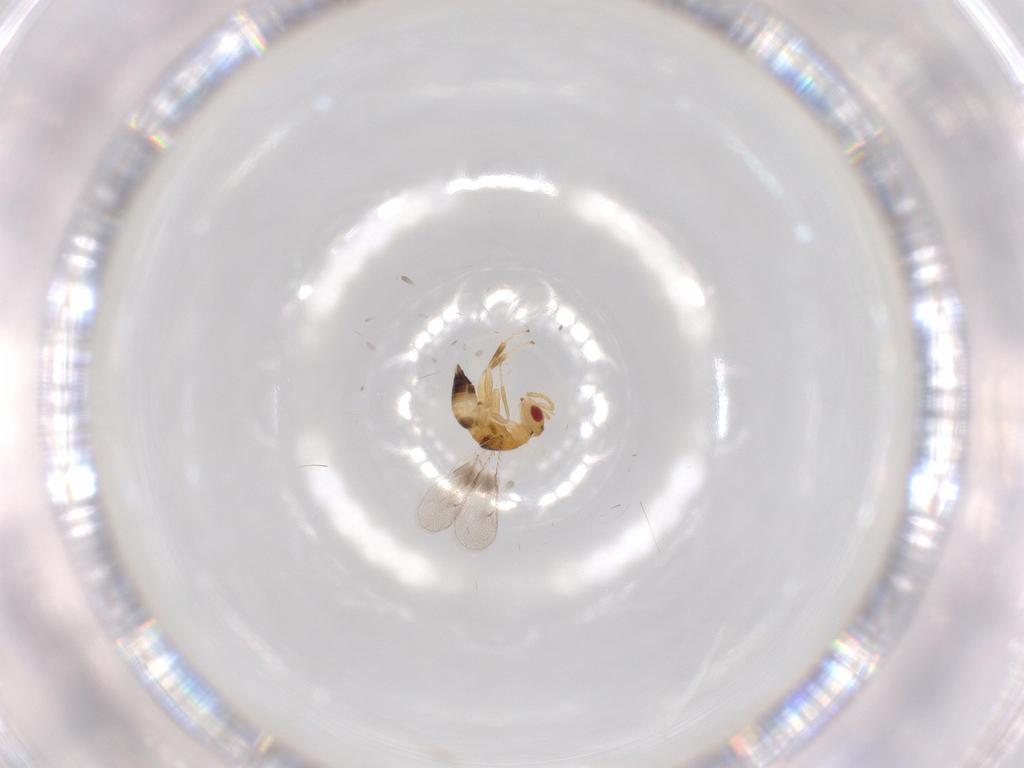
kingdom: Animalia
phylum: Arthropoda
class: Insecta
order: Hymenoptera
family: Torymidae
